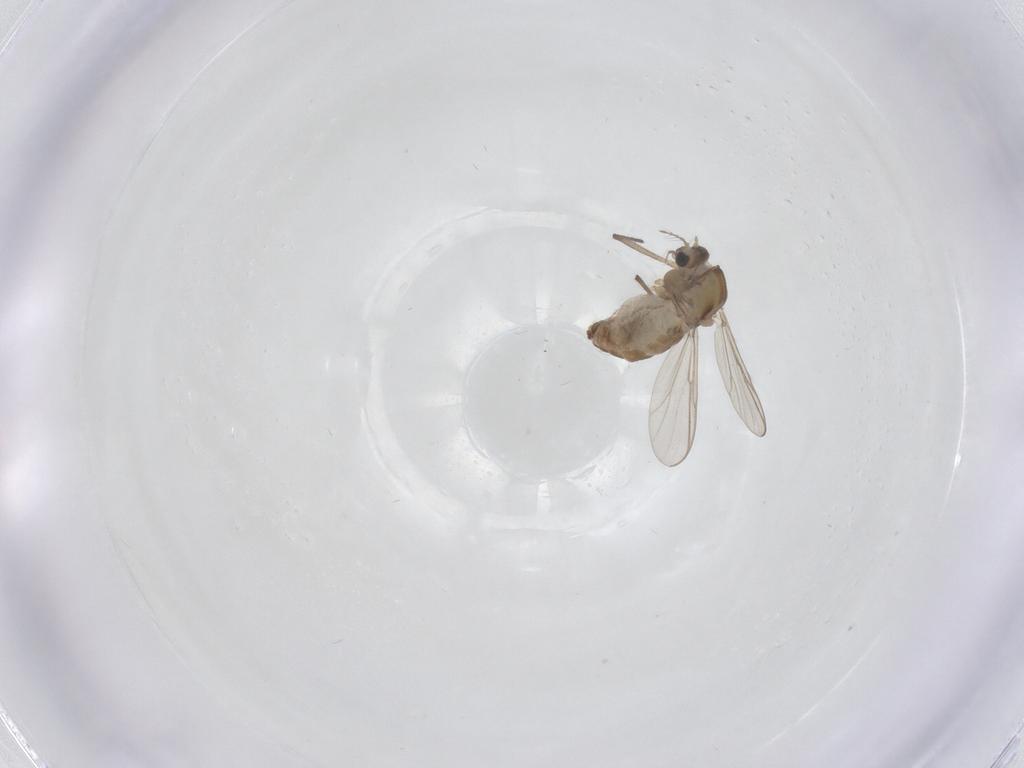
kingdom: Animalia
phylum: Arthropoda
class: Insecta
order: Diptera
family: Chironomidae
